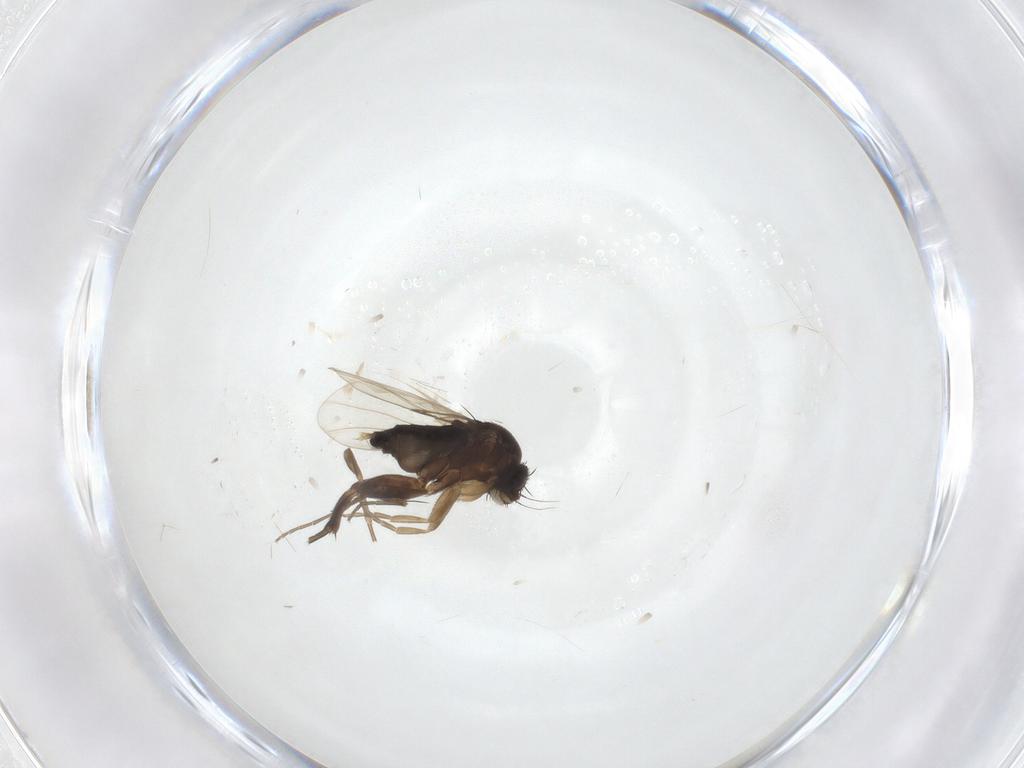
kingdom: Animalia
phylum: Arthropoda
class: Insecta
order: Diptera
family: Phoridae
